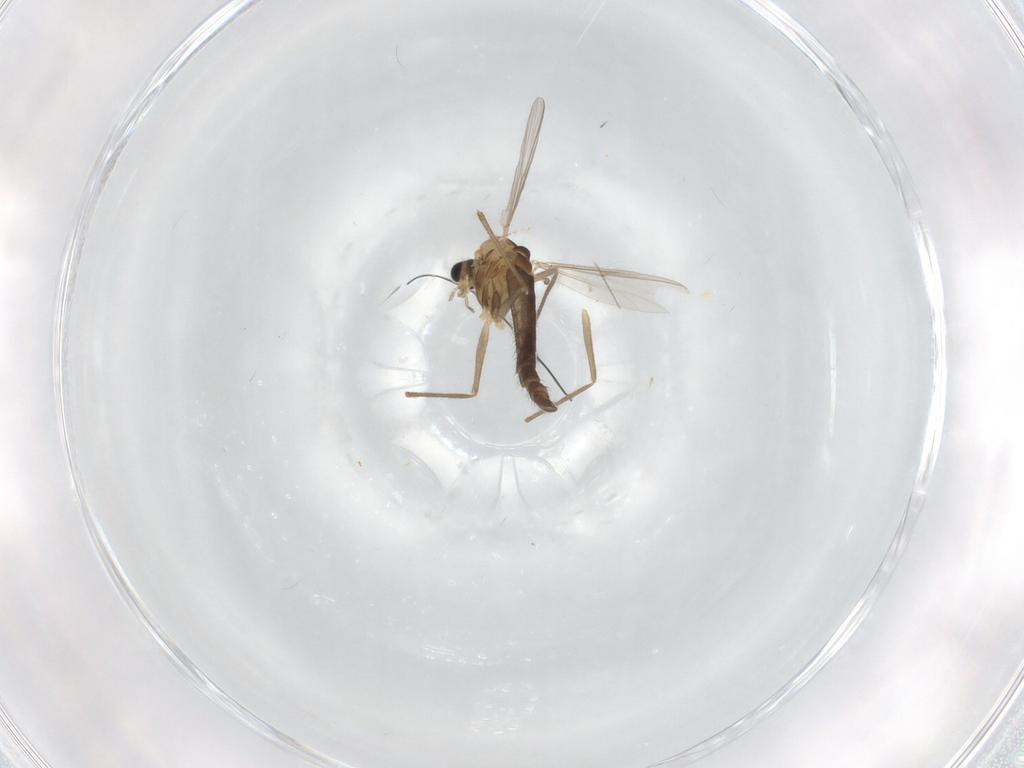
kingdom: Animalia
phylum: Arthropoda
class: Insecta
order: Diptera
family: Chironomidae
